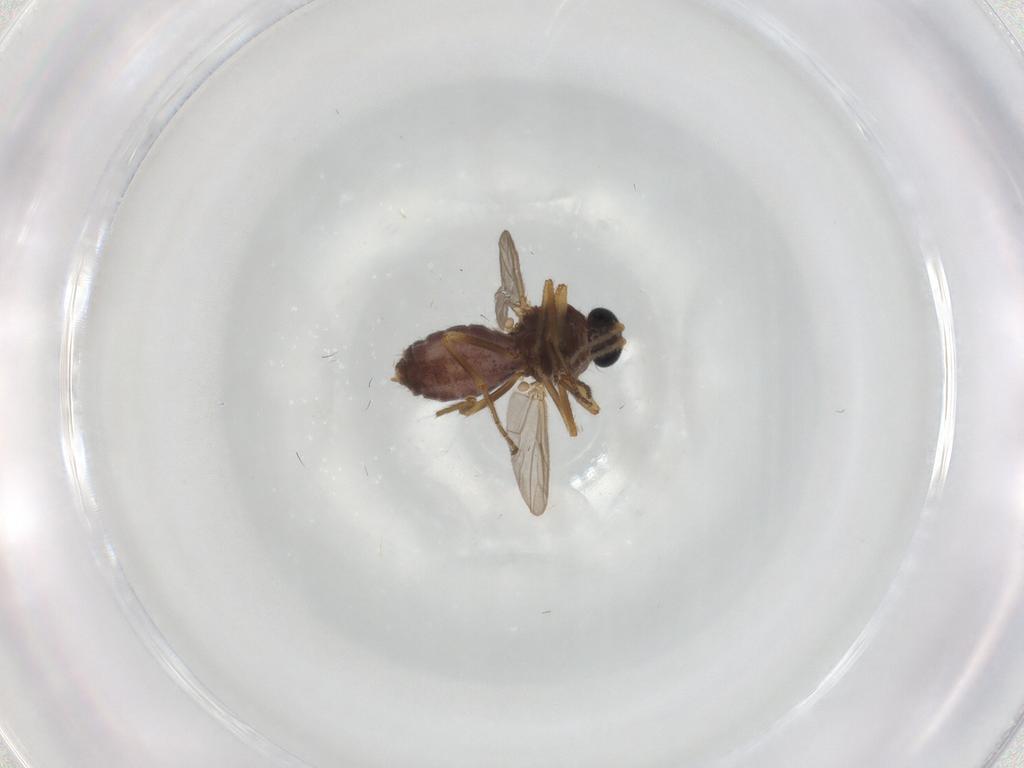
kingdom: Animalia
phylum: Arthropoda
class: Insecta
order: Diptera
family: Ceratopogonidae
